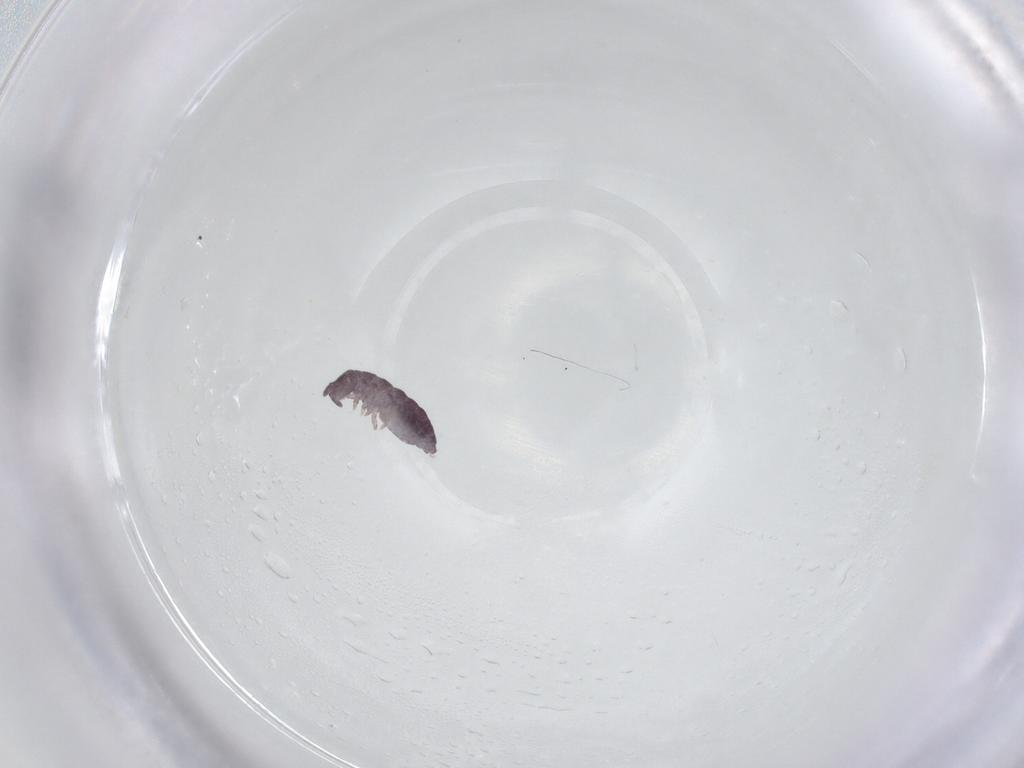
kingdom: Animalia
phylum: Arthropoda
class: Collembola
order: Poduromorpha
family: Hypogastruridae
